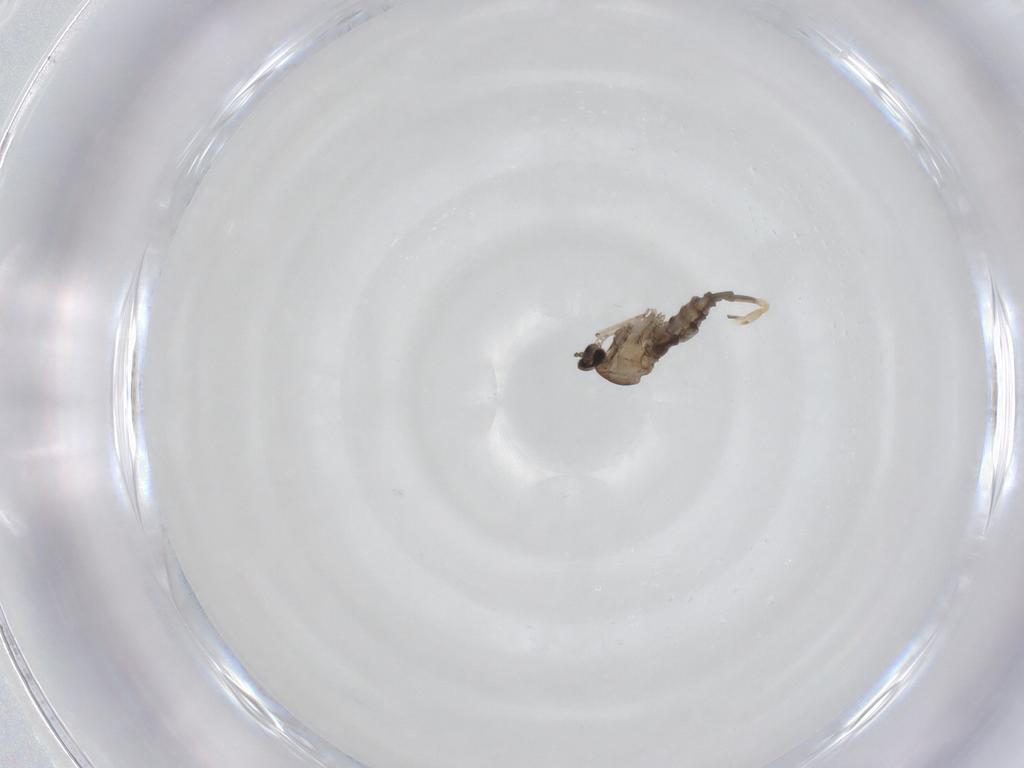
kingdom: Animalia
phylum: Arthropoda
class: Insecta
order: Diptera
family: Cecidomyiidae
